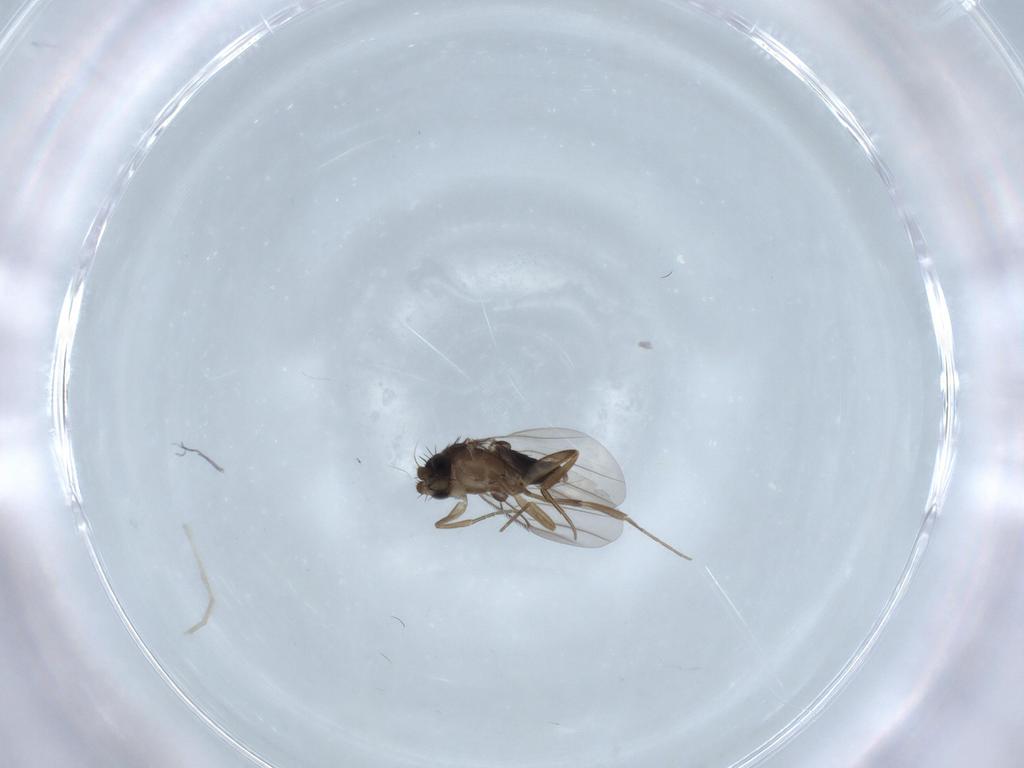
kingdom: Animalia
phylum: Arthropoda
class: Insecta
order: Diptera
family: Phoridae
